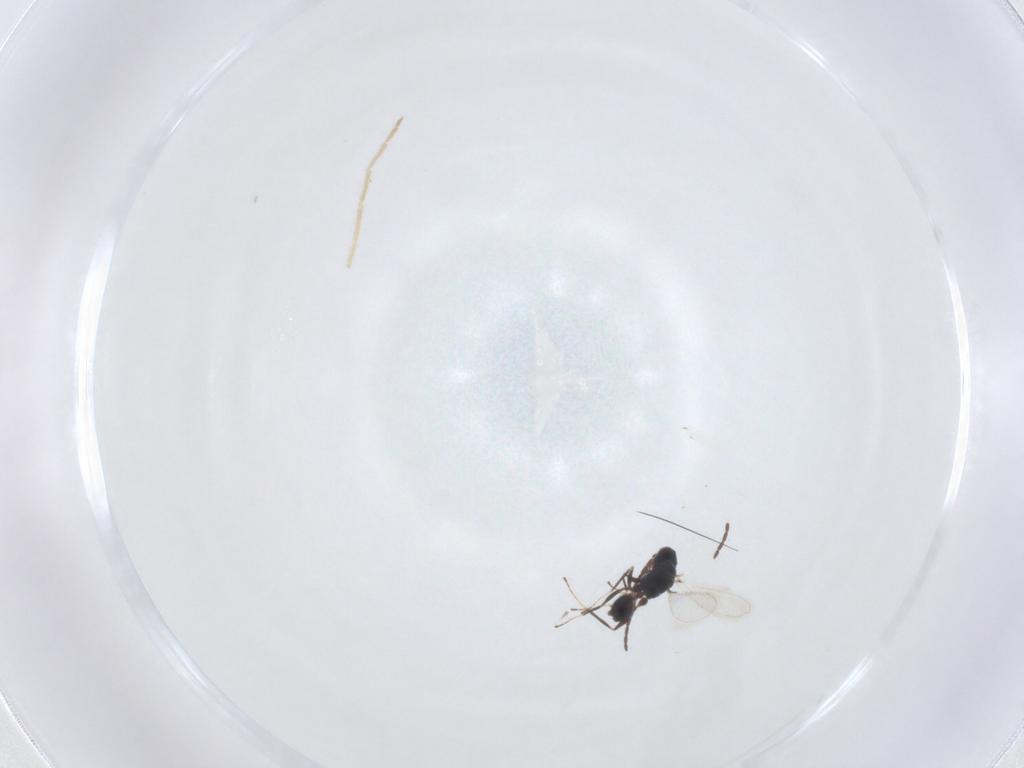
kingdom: Animalia
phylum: Arthropoda
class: Insecta
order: Hymenoptera
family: Mymaridae
